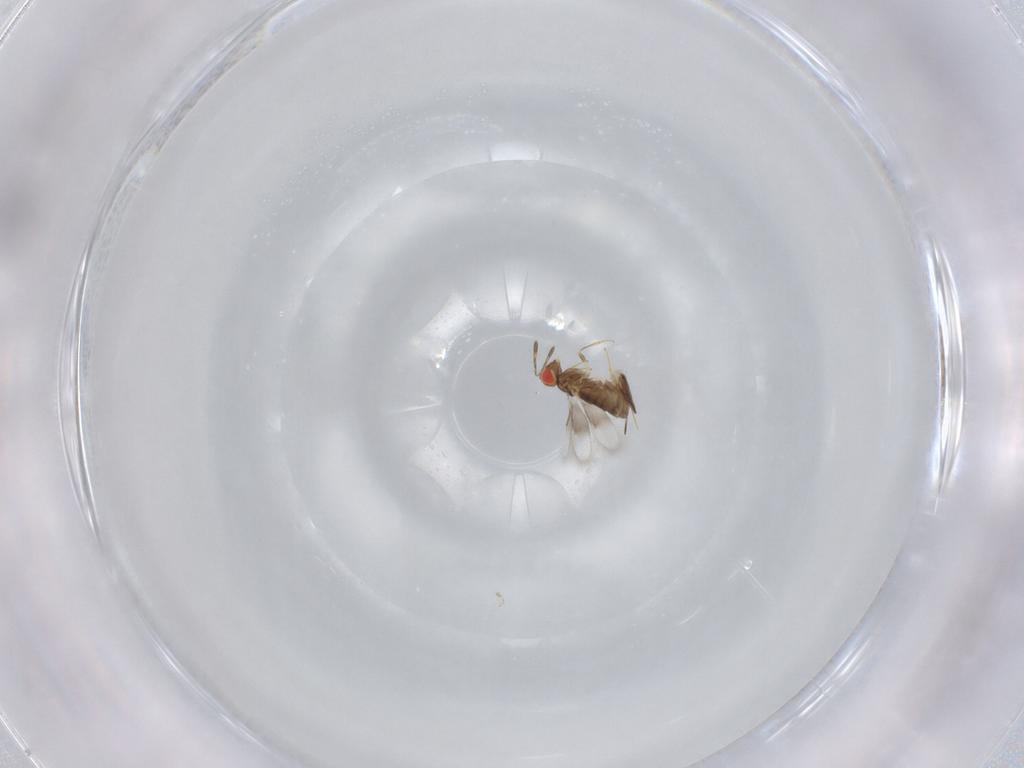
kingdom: Animalia
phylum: Arthropoda
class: Insecta
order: Hymenoptera
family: Azotidae
